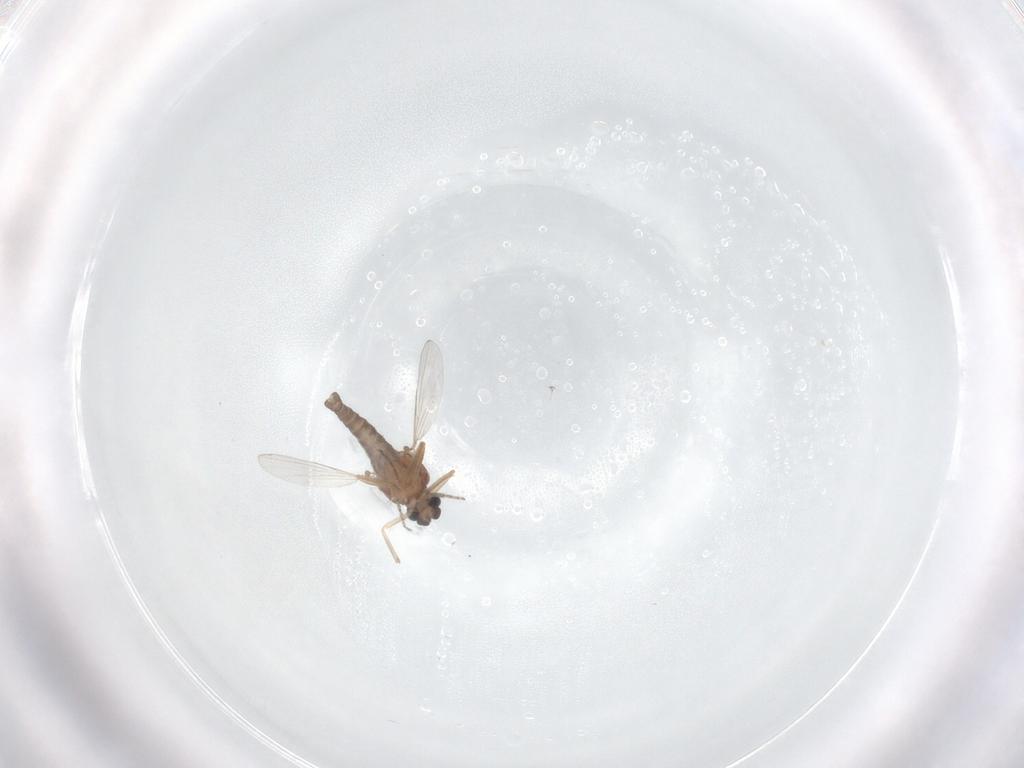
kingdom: Animalia
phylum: Arthropoda
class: Insecta
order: Diptera
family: Ceratopogonidae
